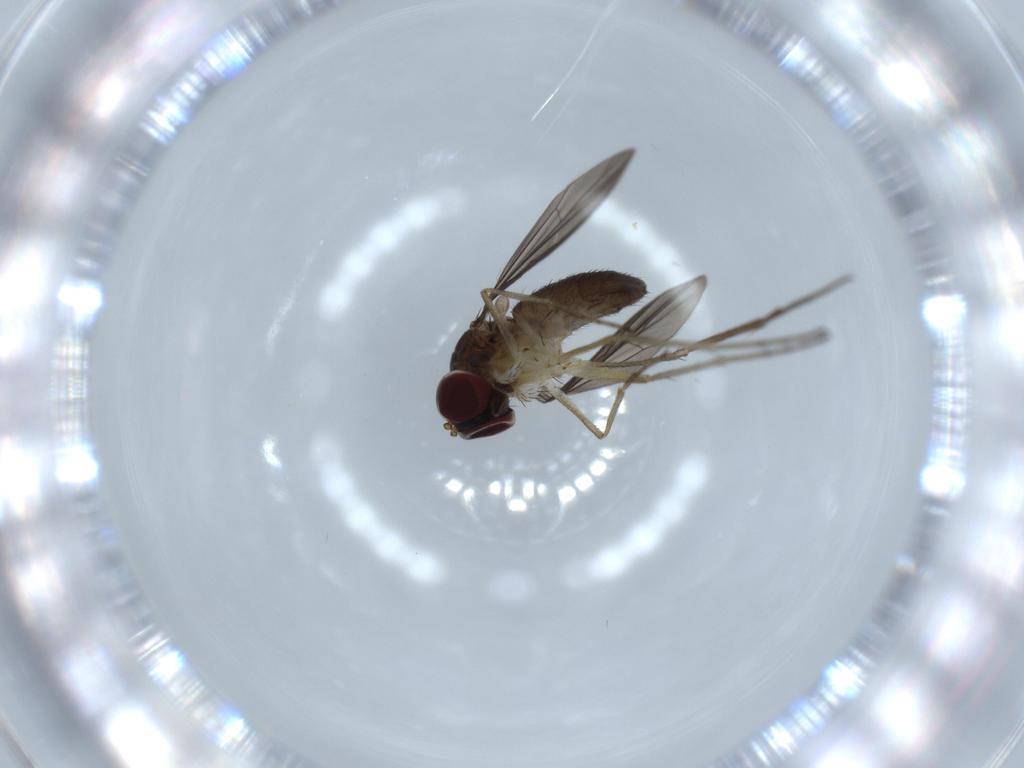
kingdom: Animalia
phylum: Arthropoda
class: Insecta
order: Diptera
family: Dolichopodidae
